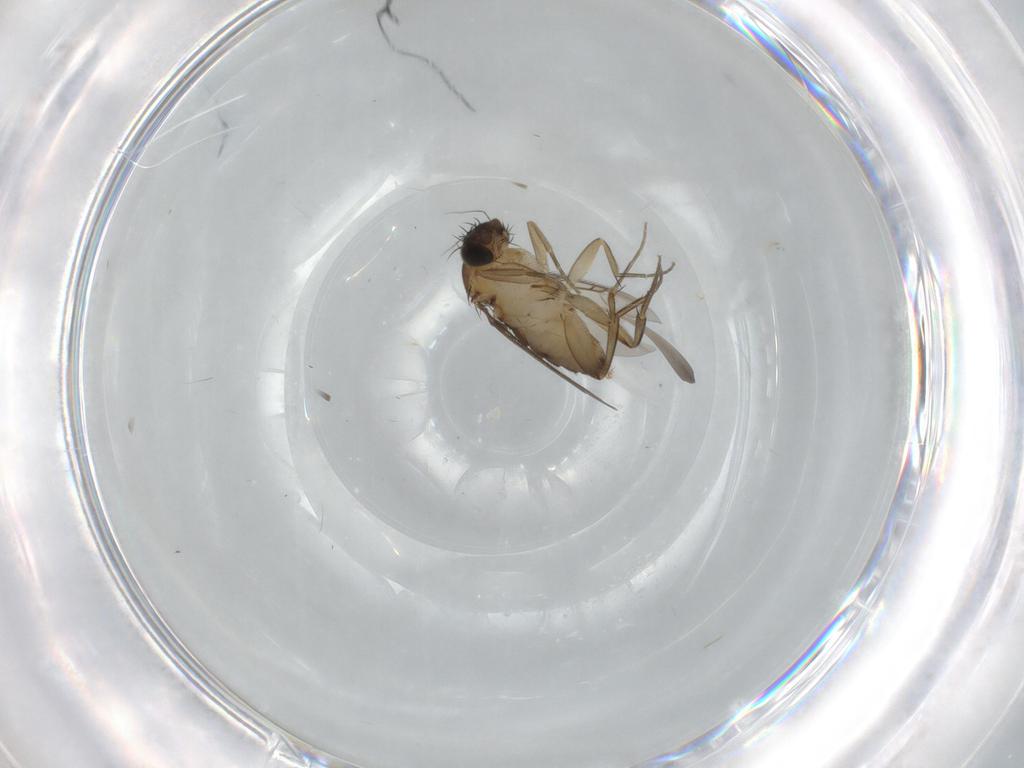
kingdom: Animalia
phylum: Arthropoda
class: Insecta
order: Diptera
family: Phoridae
